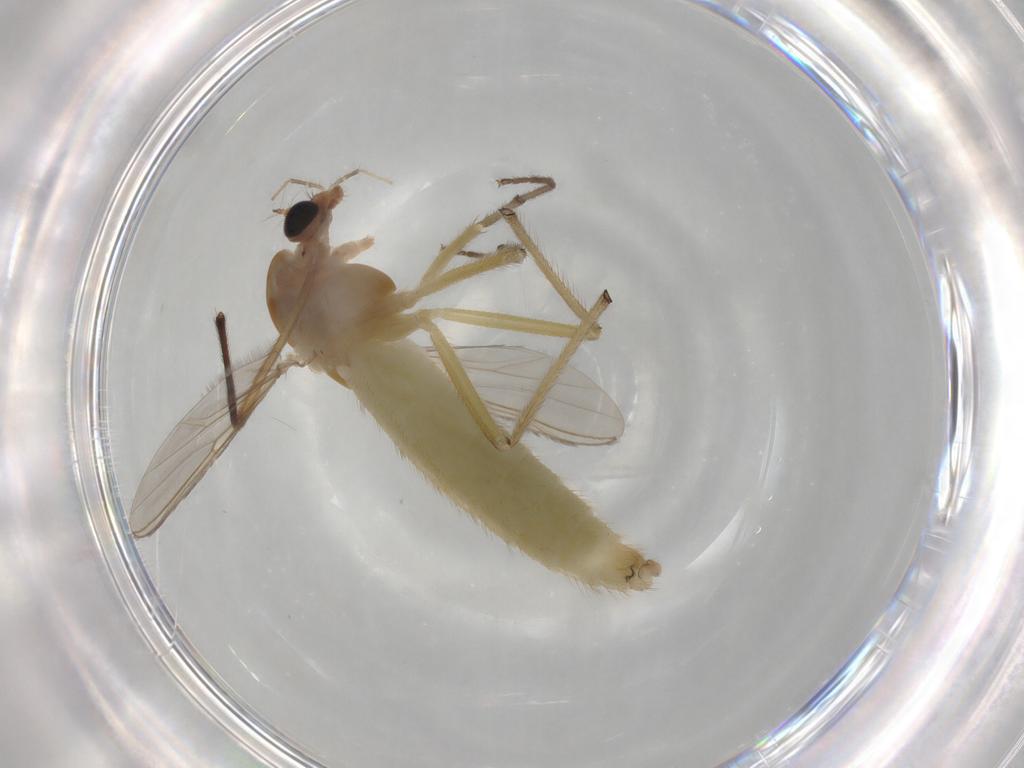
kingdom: Animalia
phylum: Arthropoda
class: Insecta
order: Diptera
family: Chironomidae
